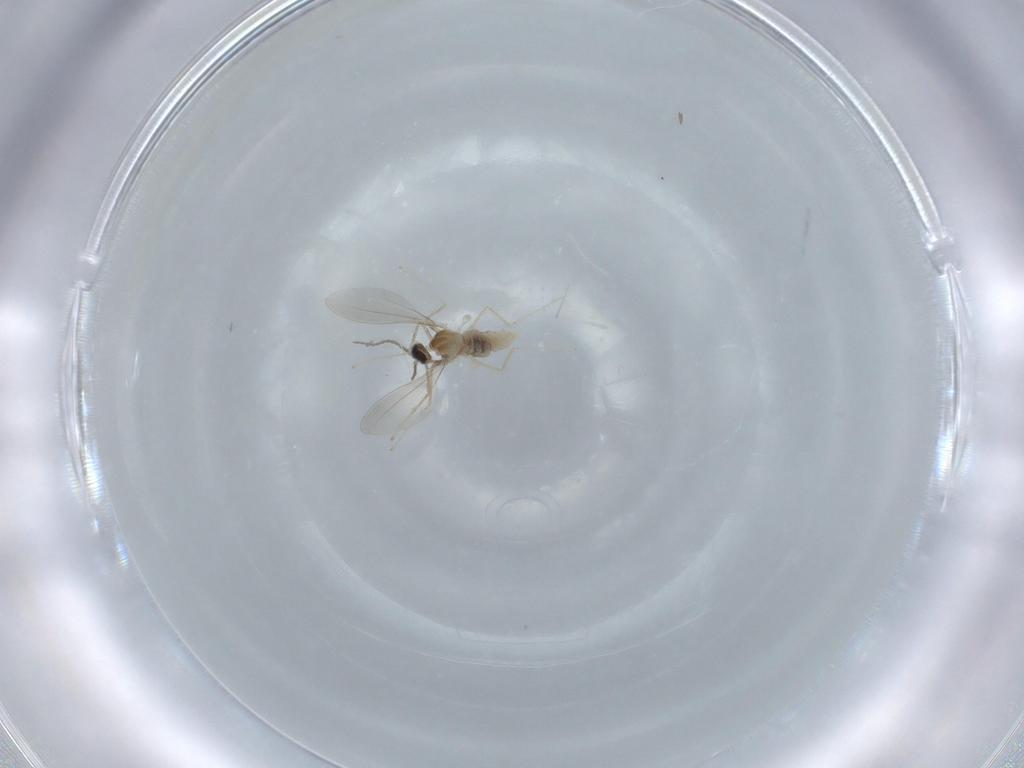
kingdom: Animalia
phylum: Arthropoda
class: Insecta
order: Diptera
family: Cecidomyiidae
